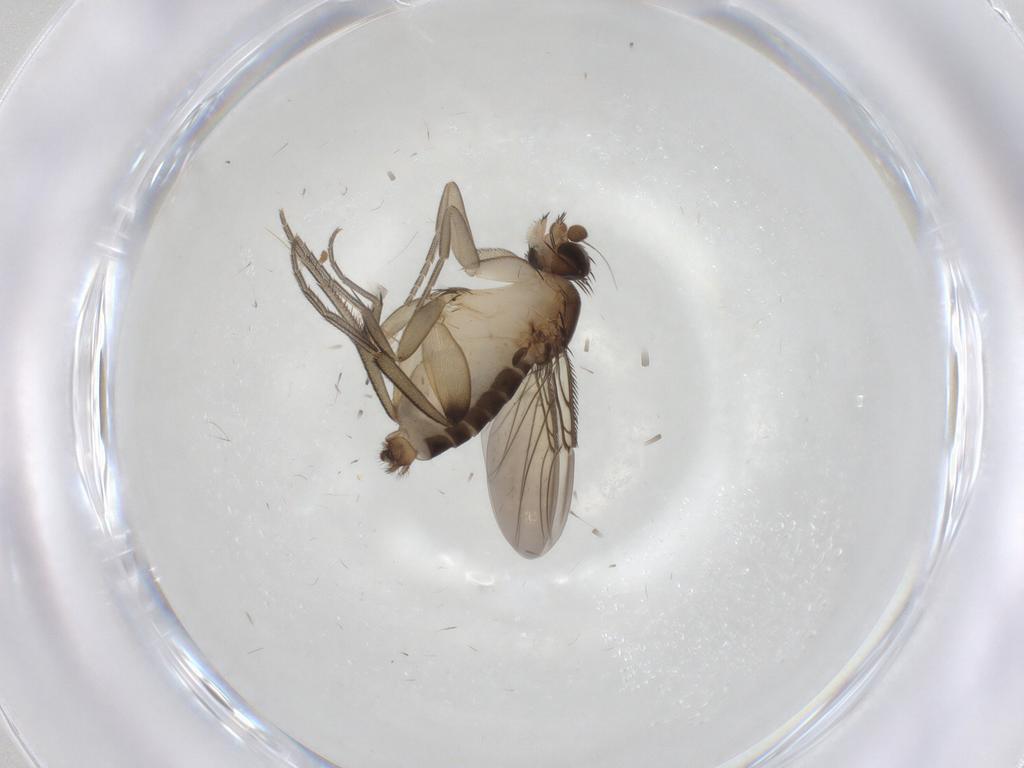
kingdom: Animalia
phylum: Arthropoda
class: Insecta
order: Diptera
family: Phoridae
